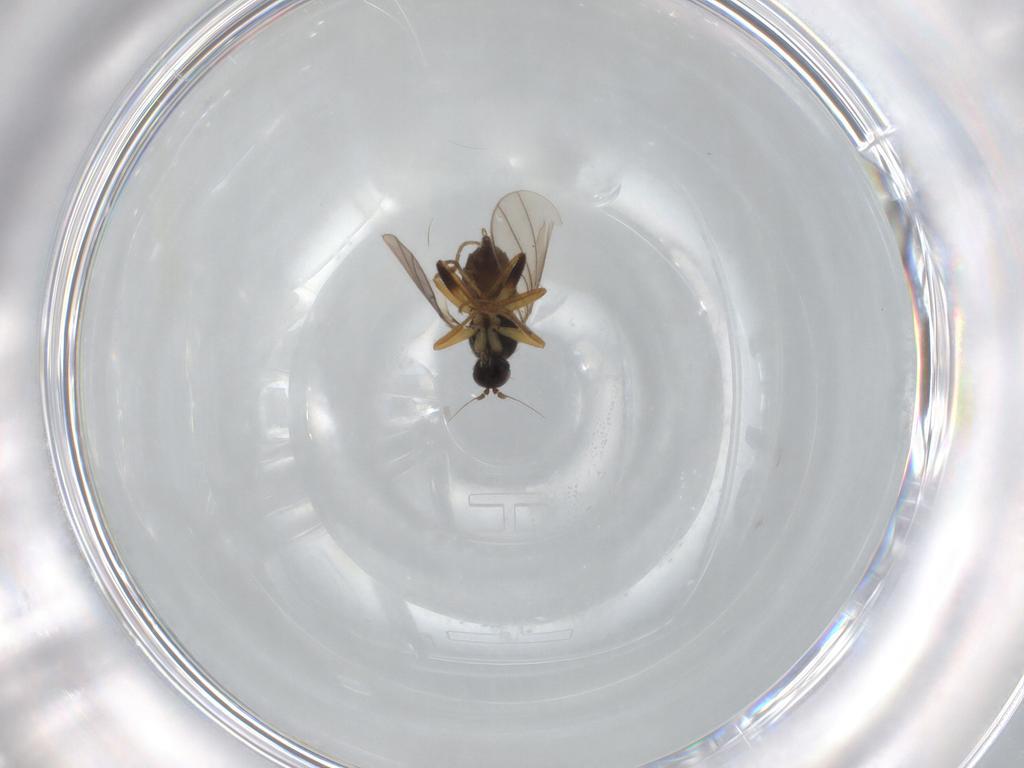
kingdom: Animalia
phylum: Arthropoda
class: Insecta
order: Diptera
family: Hybotidae
